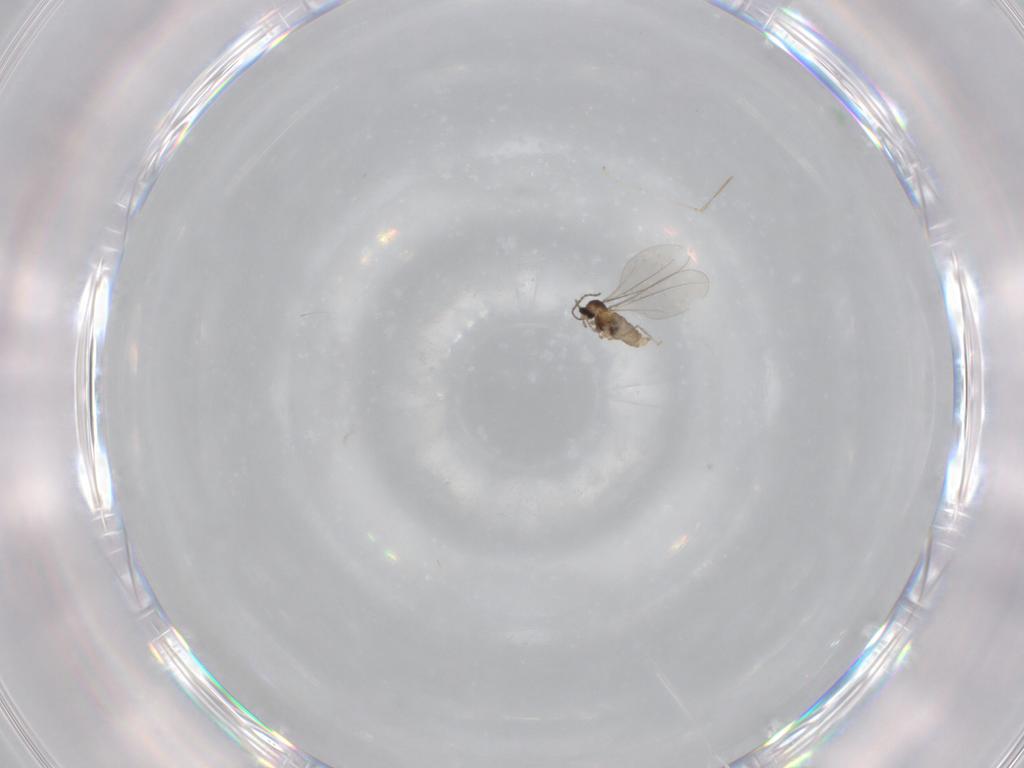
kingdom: Animalia
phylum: Arthropoda
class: Insecta
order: Diptera
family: Cecidomyiidae
